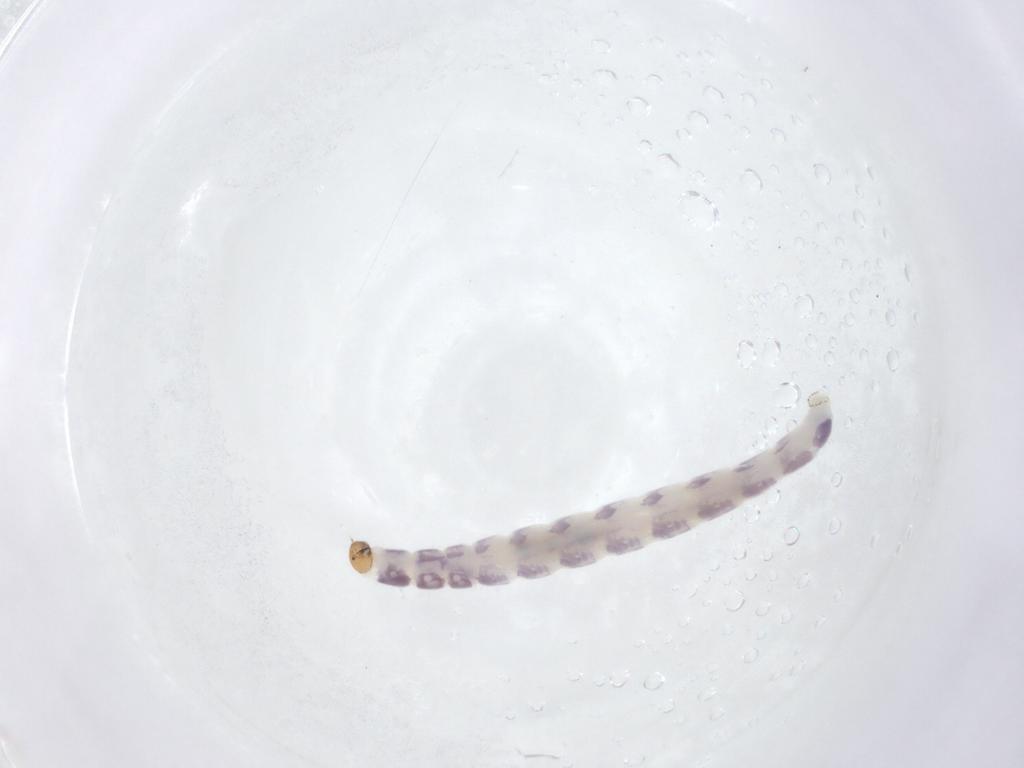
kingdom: Animalia
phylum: Arthropoda
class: Insecta
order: Diptera
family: Chironomidae
